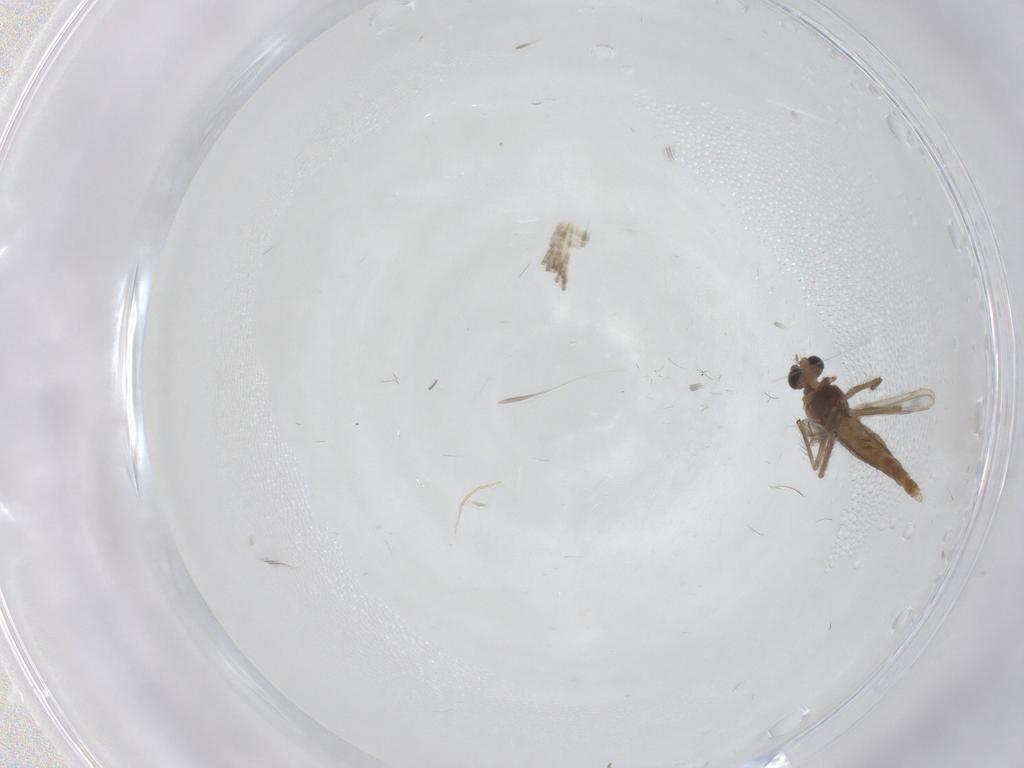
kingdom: Animalia
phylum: Arthropoda
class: Insecta
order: Diptera
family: Chironomidae
